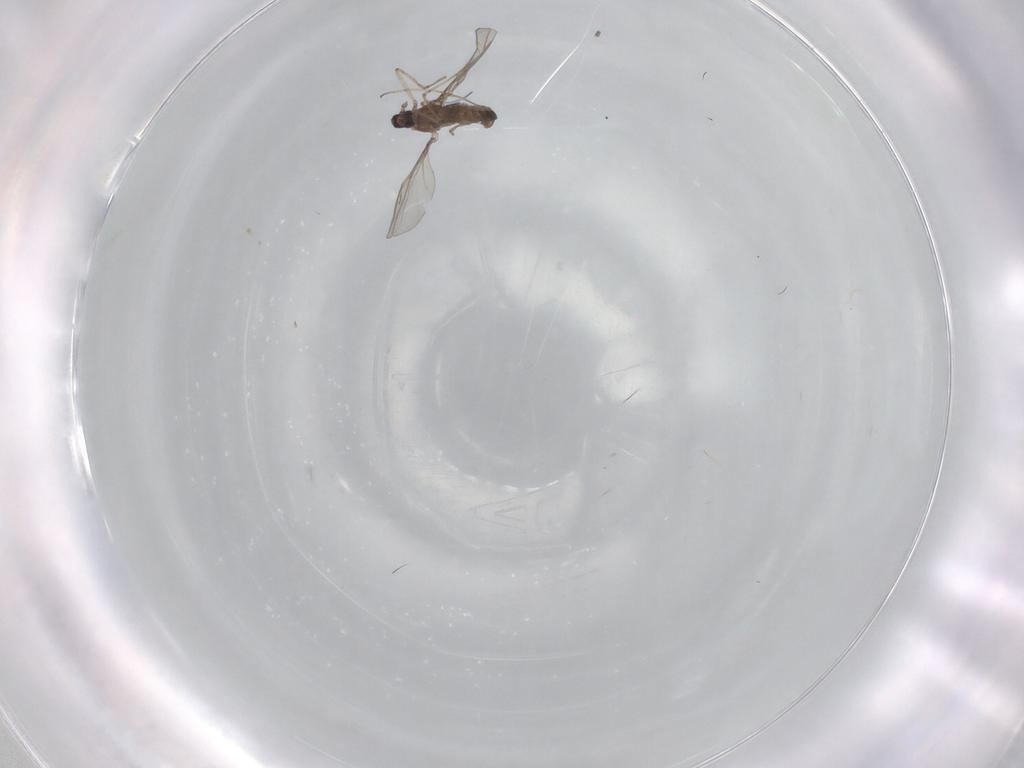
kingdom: Animalia
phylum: Arthropoda
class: Insecta
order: Diptera
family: Cecidomyiidae
